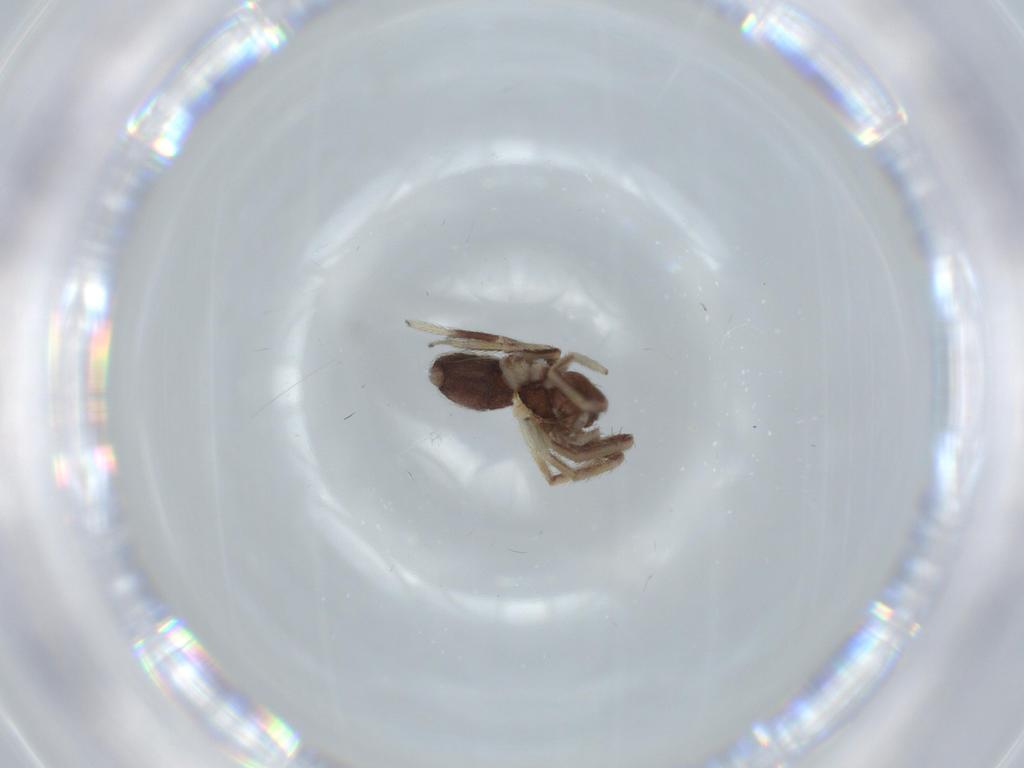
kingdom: Animalia
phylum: Arthropoda
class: Arachnida
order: Araneae
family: Corinnidae
